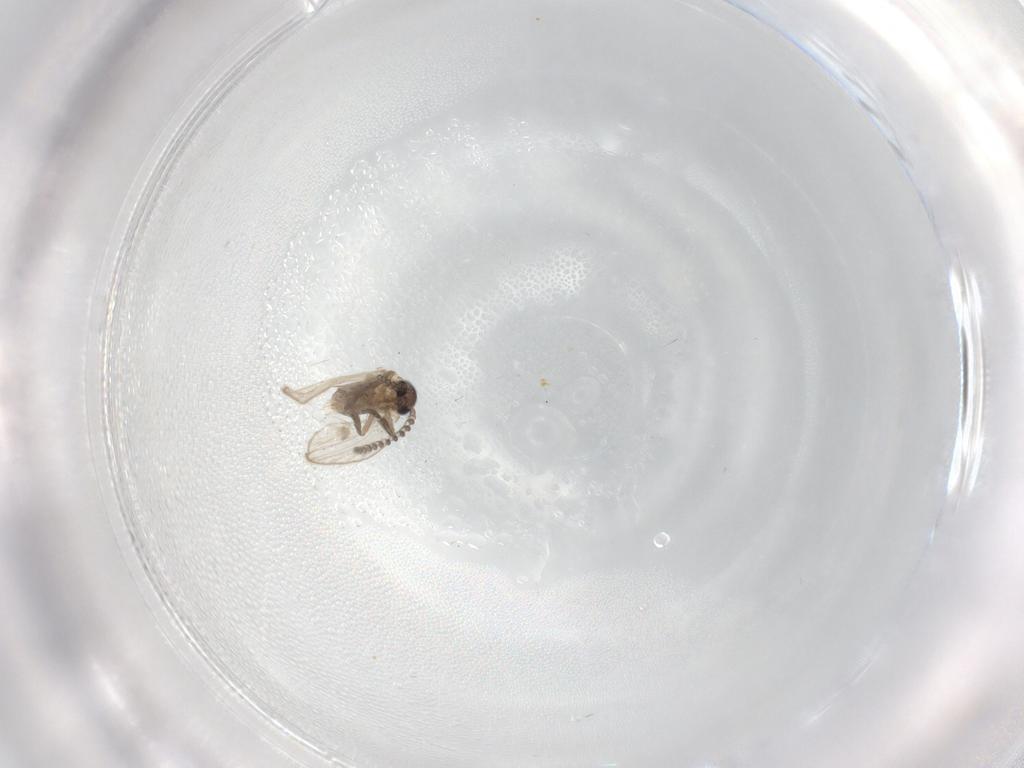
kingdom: Animalia
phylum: Arthropoda
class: Insecta
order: Diptera
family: Psychodidae
